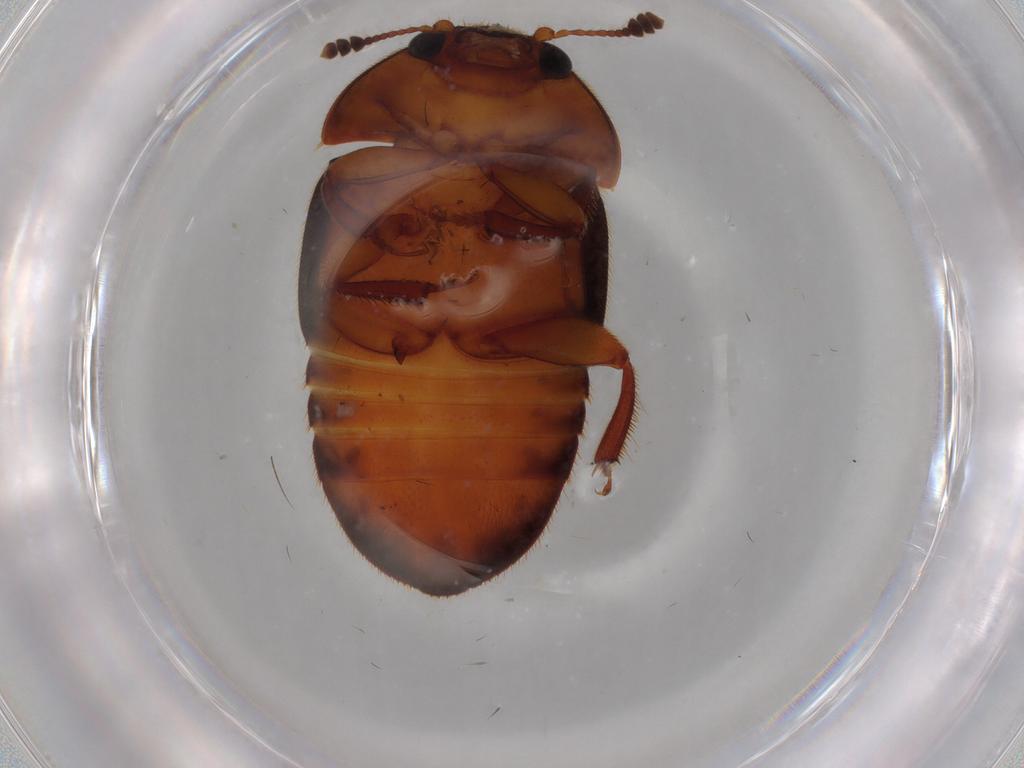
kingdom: Animalia
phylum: Arthropoda
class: Insecta
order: Coleoptera
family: Nitidulidae
